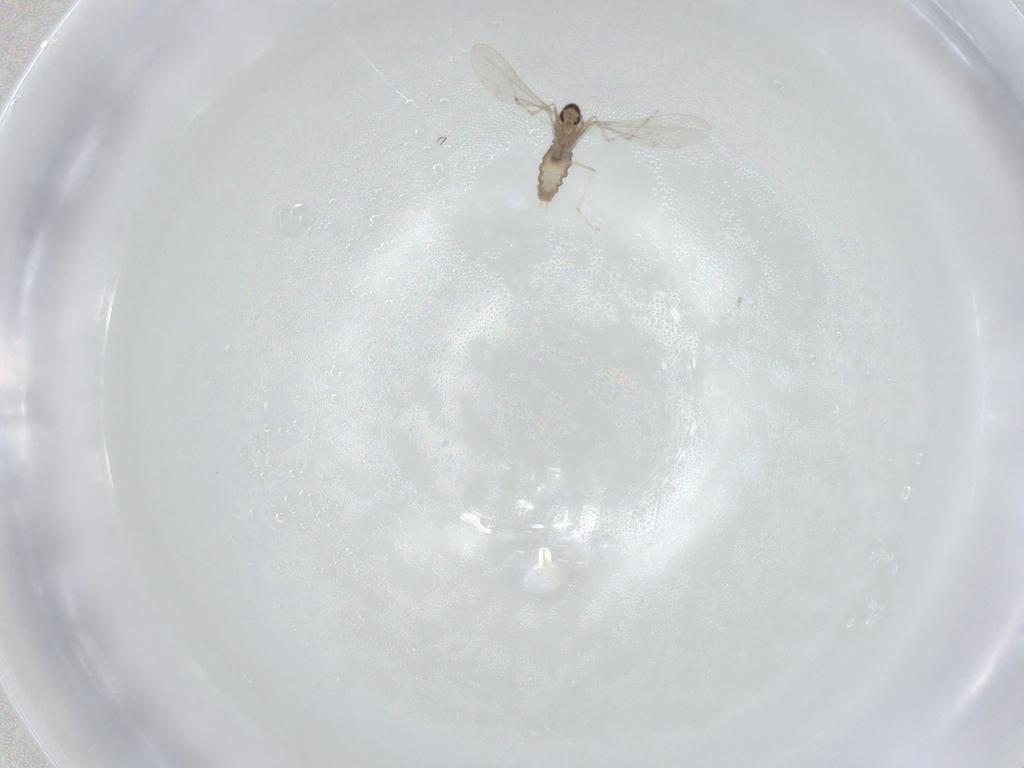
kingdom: Animalia
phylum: Arthropoda
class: Insecta
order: Diptera
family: Cecidomyiidae
